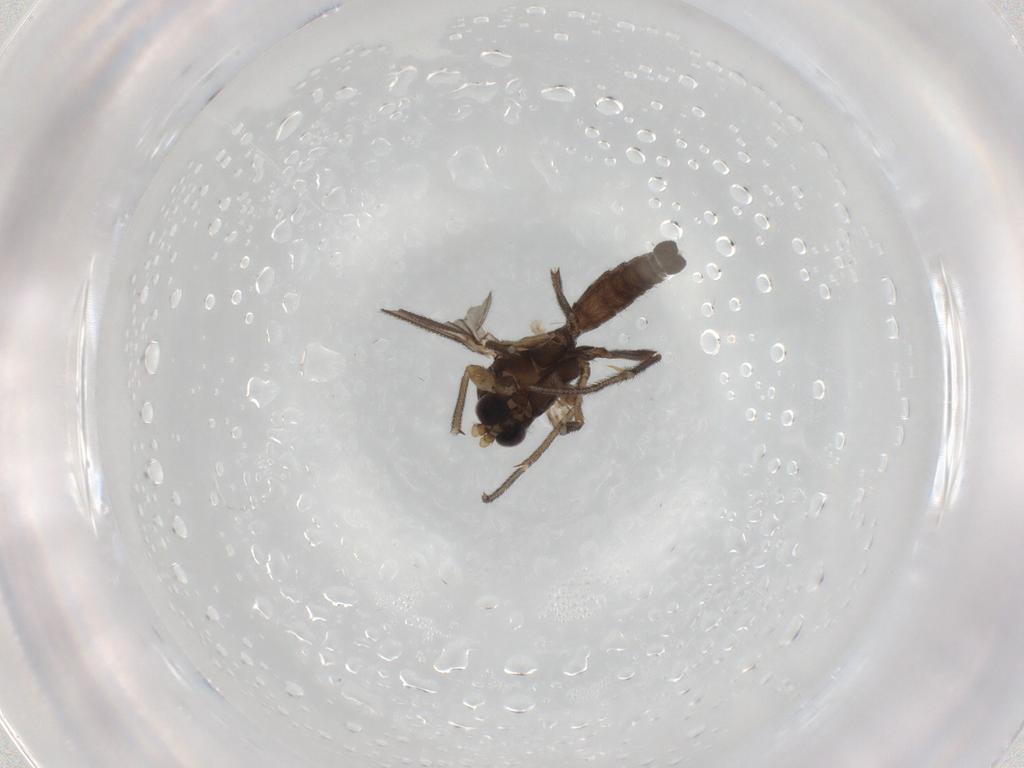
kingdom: Animalia
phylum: Arthropoda
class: Insecta
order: Diptera
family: Mycetophilidae
